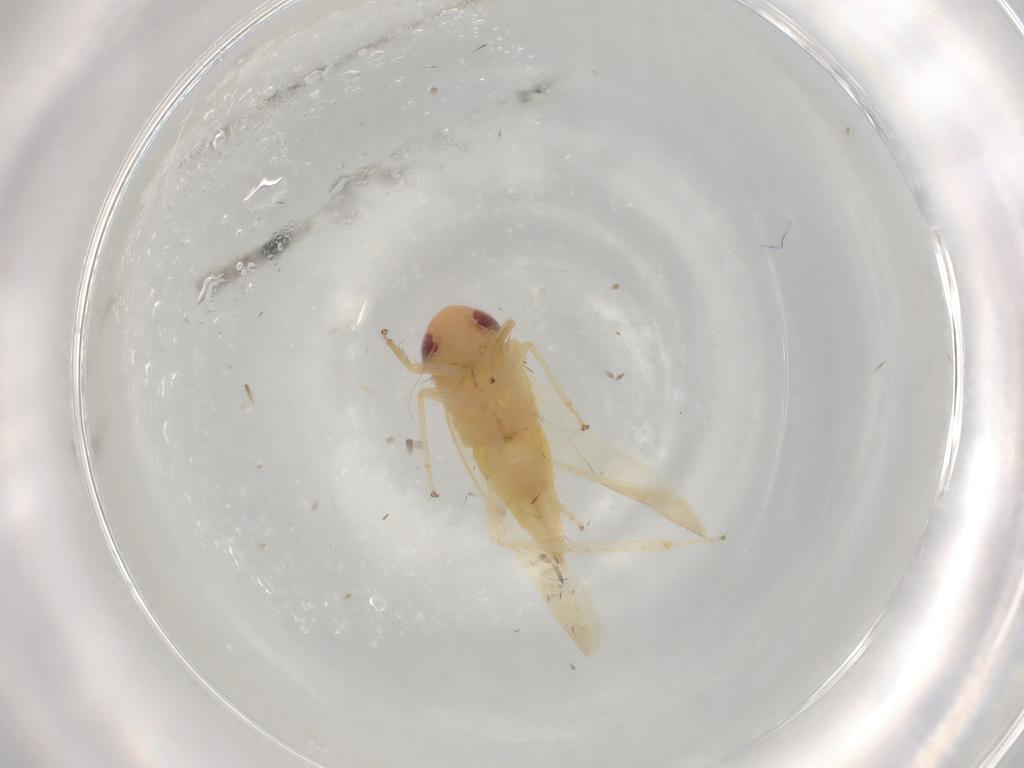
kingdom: Animalia
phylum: Arthropoda
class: Insecta
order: Hemiptera
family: Cicadellidae
